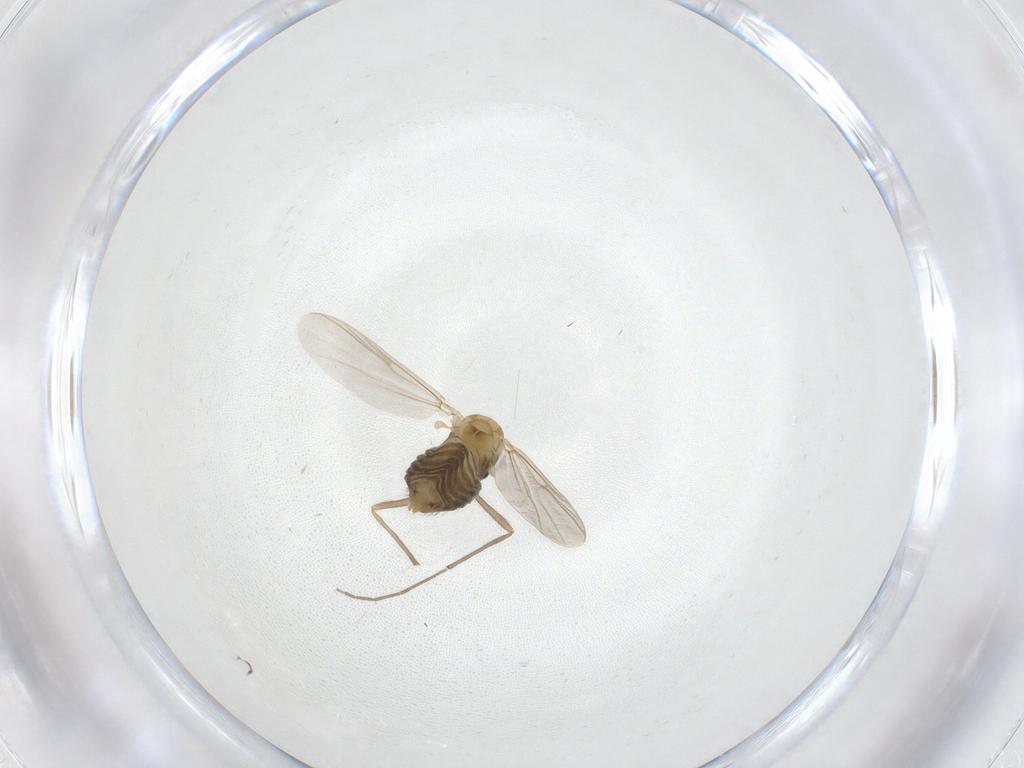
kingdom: Animalia
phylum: Arthropoda
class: Insecta
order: Diptera
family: Chironomidae
